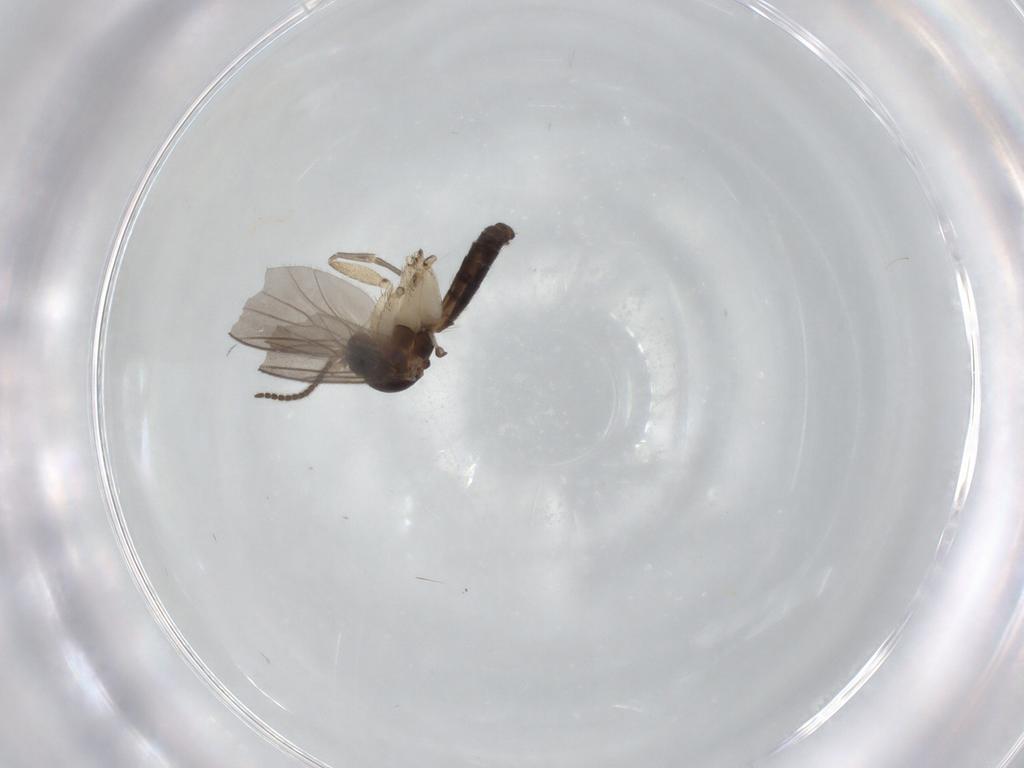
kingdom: Animalia
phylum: Arthropoda
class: Insecta
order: Diptera
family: Mycetophilidae
